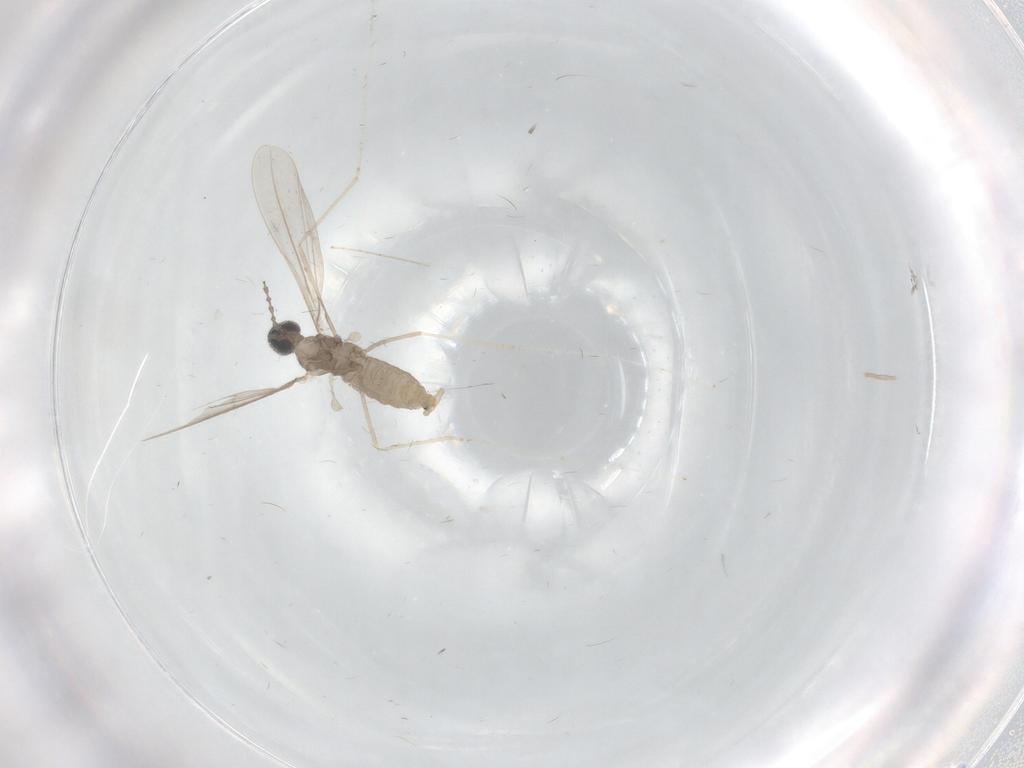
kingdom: Animalia
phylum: Arthropoda
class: Insecta
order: Diptera
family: Cecidomyiidae
